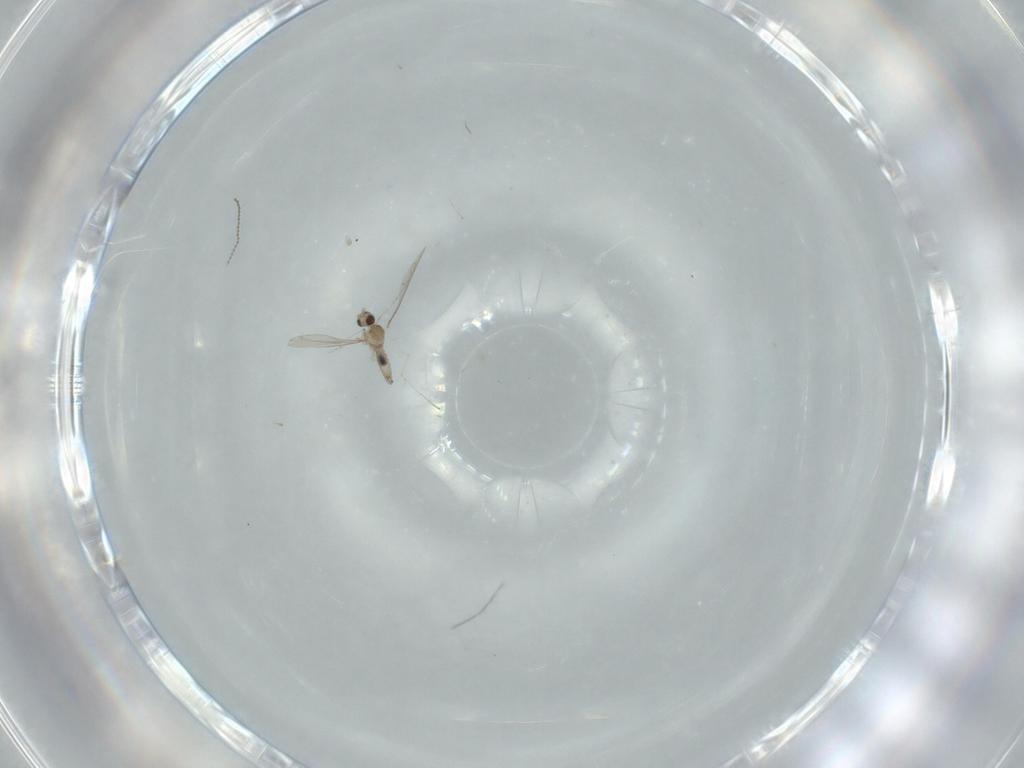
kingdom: Animalia
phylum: Arthropoda
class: Insecta
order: Diptera
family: Cecidomyiidae
